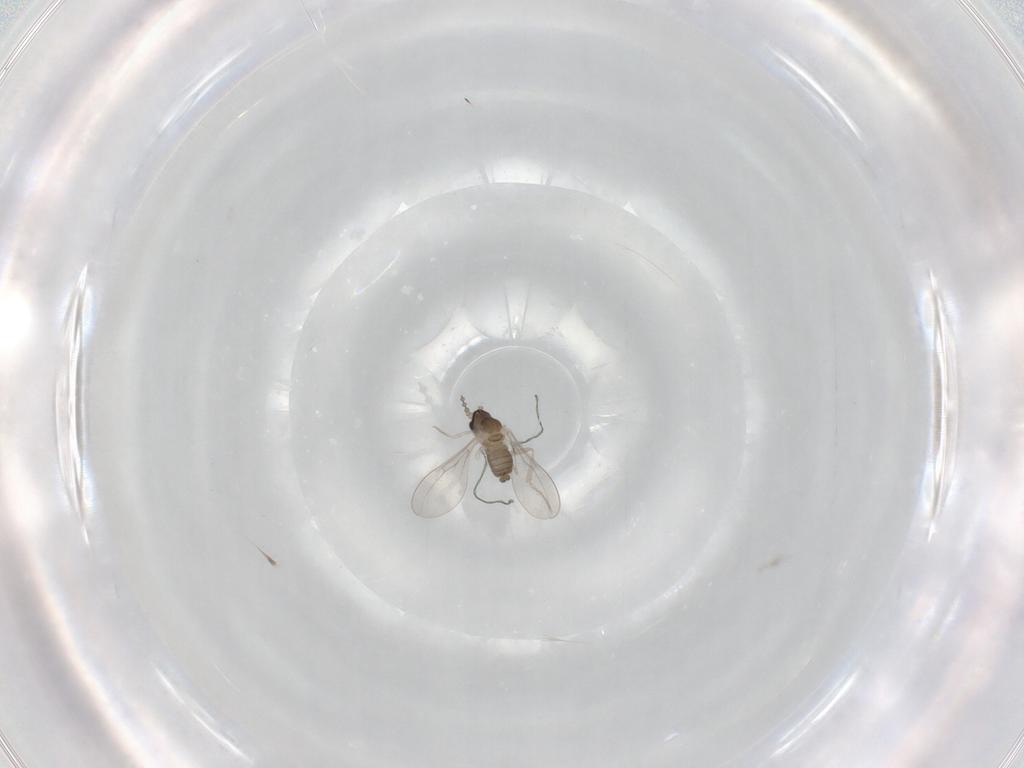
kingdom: Animalia
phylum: Arthropoda
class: Insecta
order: Diptera
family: Cecidomyiidae
